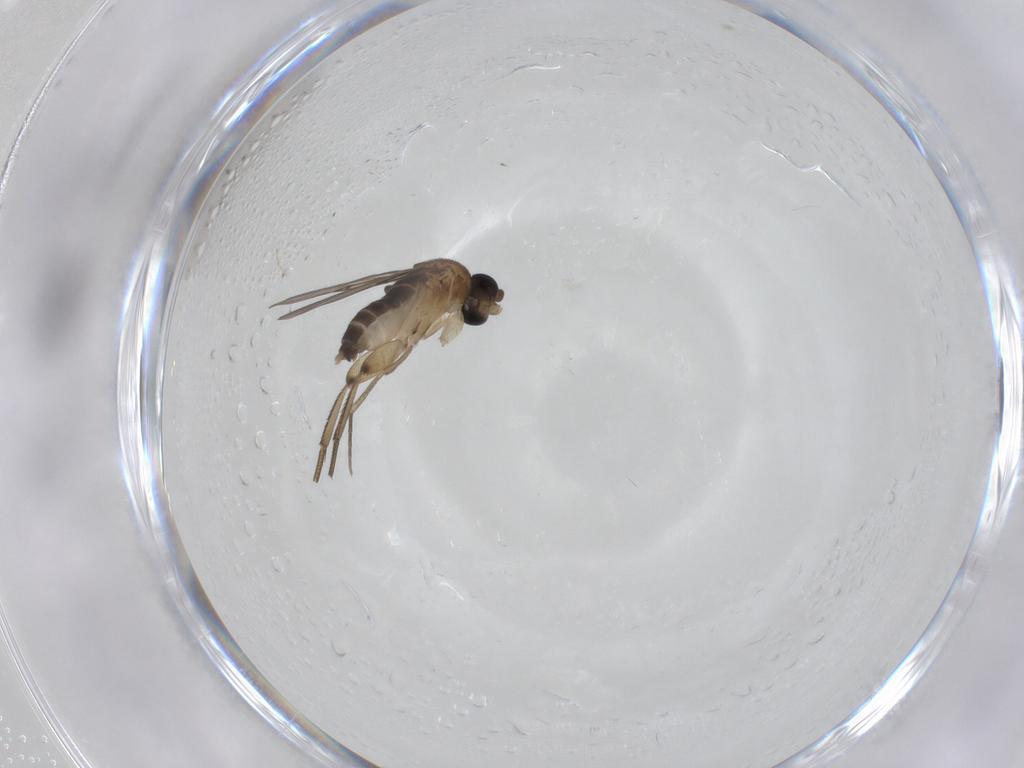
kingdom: Animalia
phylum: Arthropoda
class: Insecta
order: Diptera
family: Phoridae
